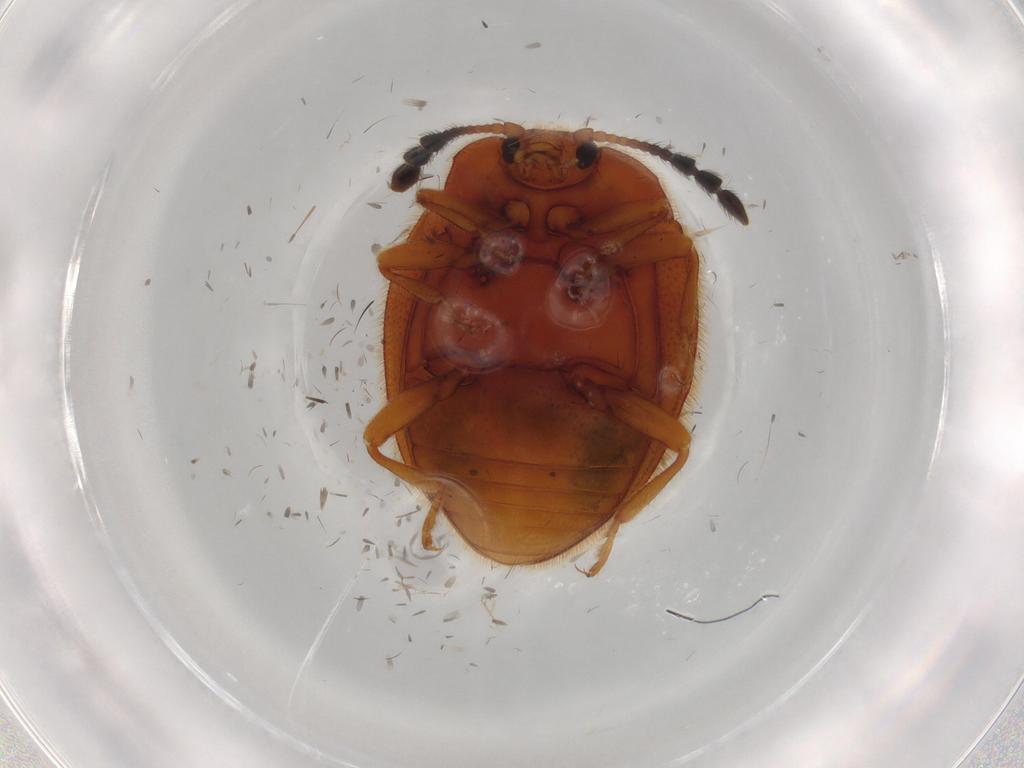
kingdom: Animalia
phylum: Arthropoda
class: Insecta
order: Coleoptera
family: Endomychidae
